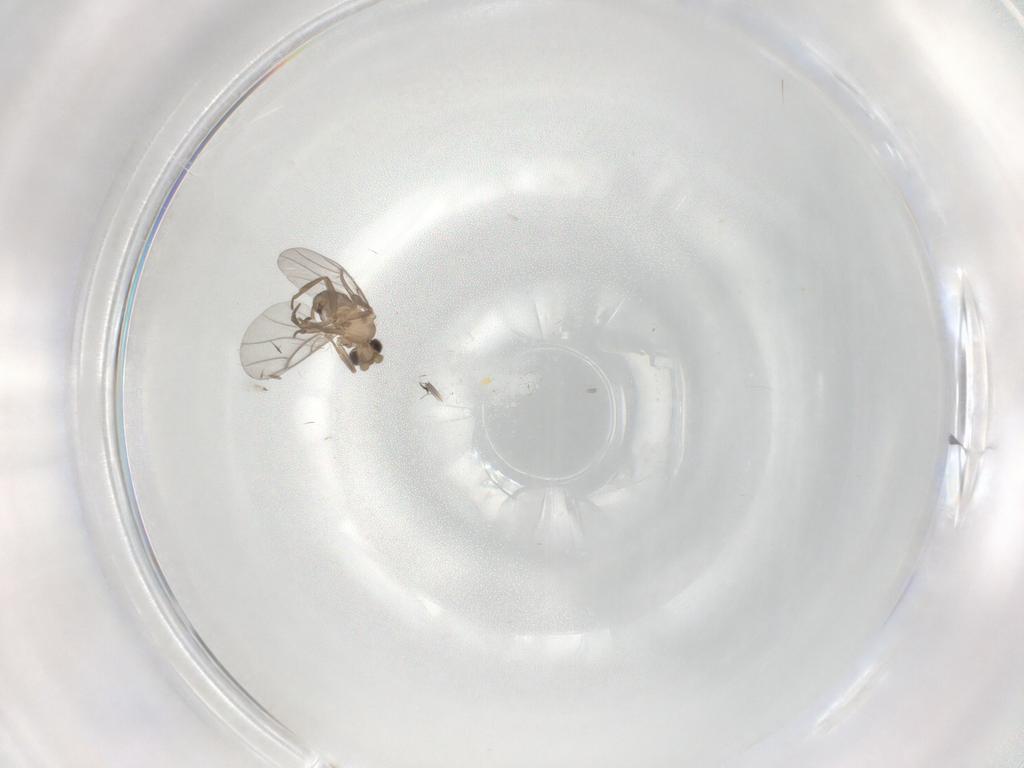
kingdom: Animalia
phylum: Arthropoda
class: Insecta
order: Diptera
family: Tabanidae
